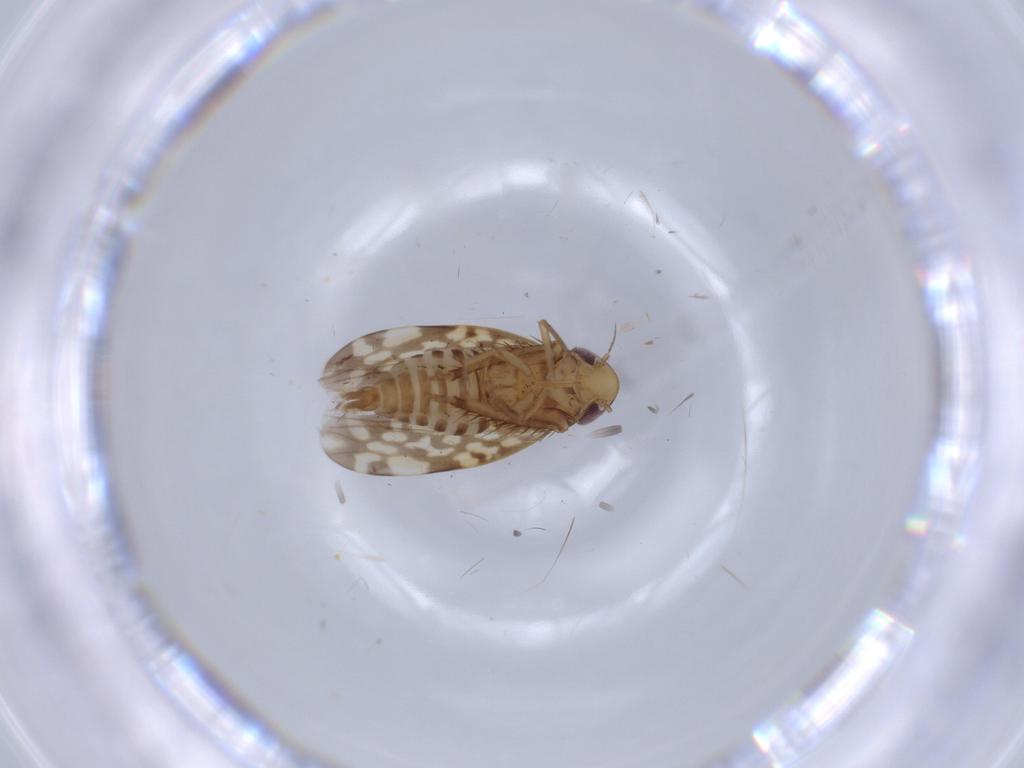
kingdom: Animalia
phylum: Arthropoda
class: Insecta
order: Hemiptera
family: Cicadellidae
